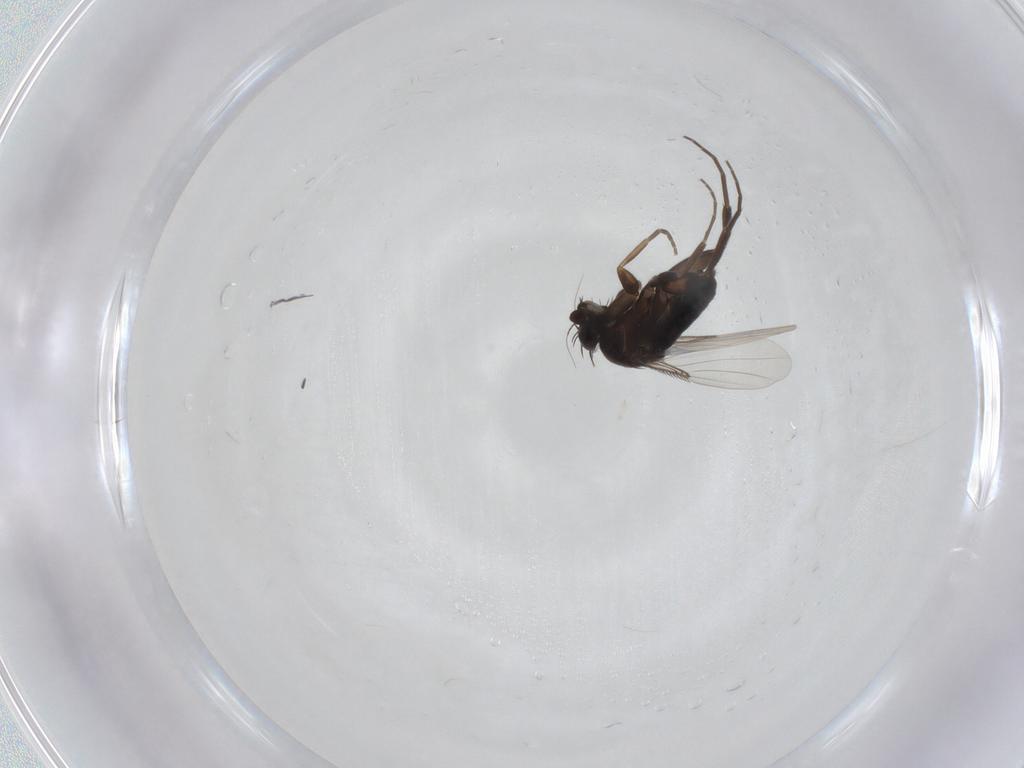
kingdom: Animalia
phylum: Arthropoda
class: Insecta
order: Diptera
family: Phoridae
